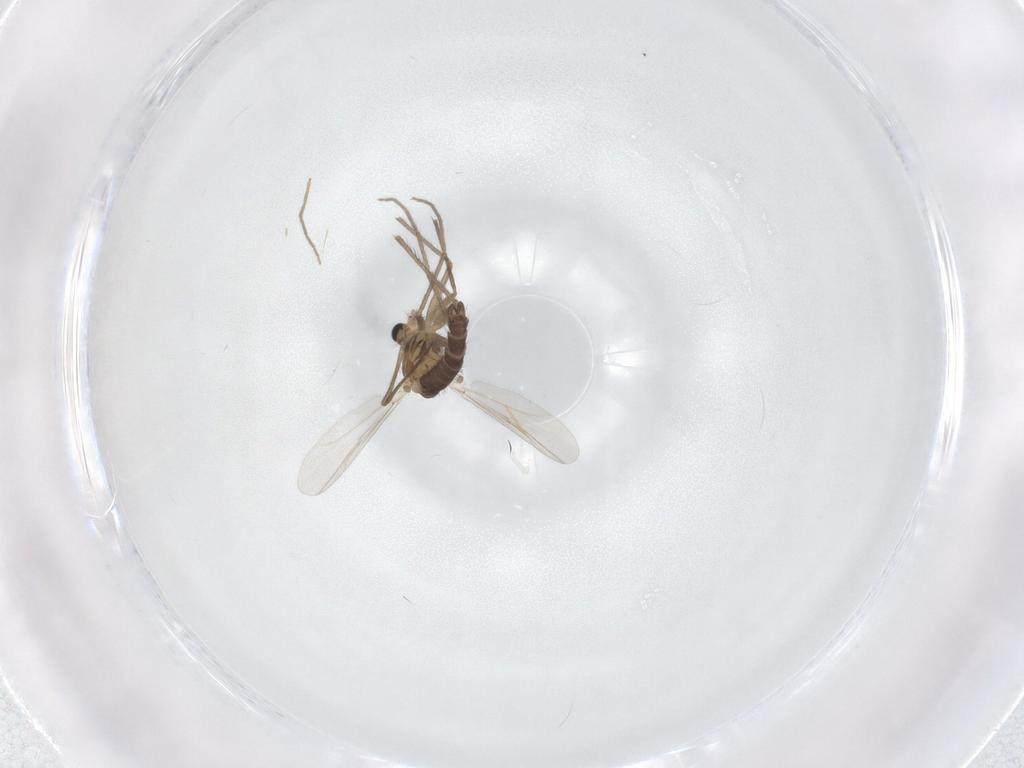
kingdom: Animalia
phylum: Arthropoda
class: Insecta
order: Diptera
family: Chironomidae
